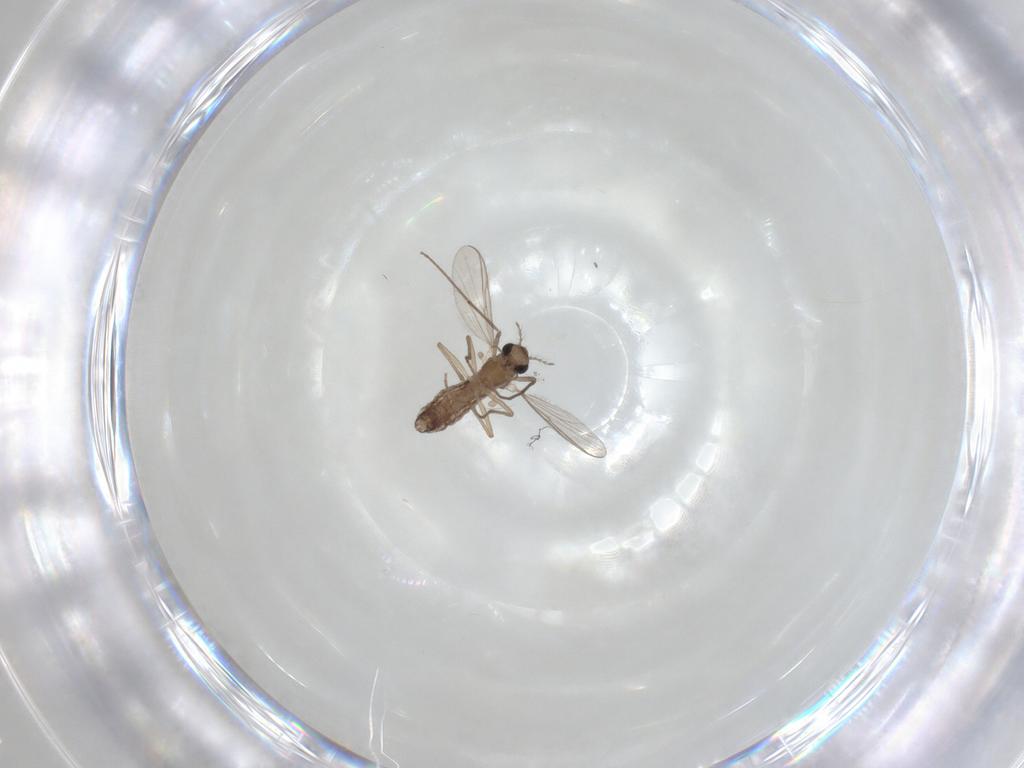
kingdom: Animalia
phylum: Arthropoda
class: Insecta
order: Diptera
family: Chironomidae
